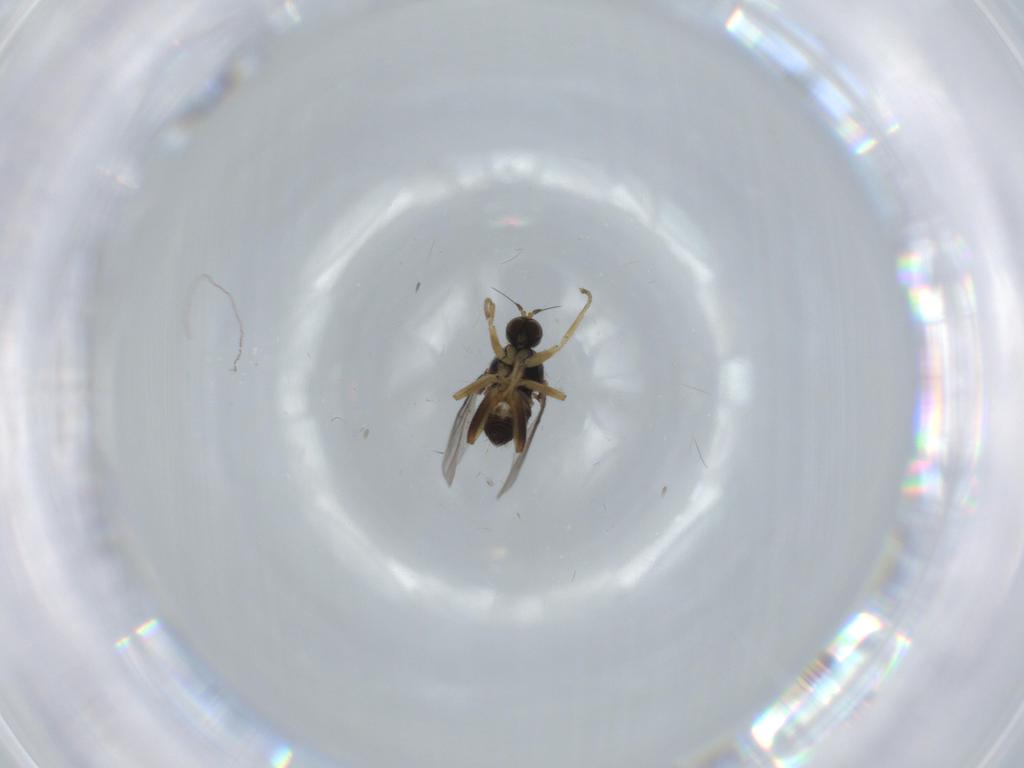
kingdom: Animalia
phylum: Arthropoda
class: Insecta
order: Diptera
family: Hybotidae
